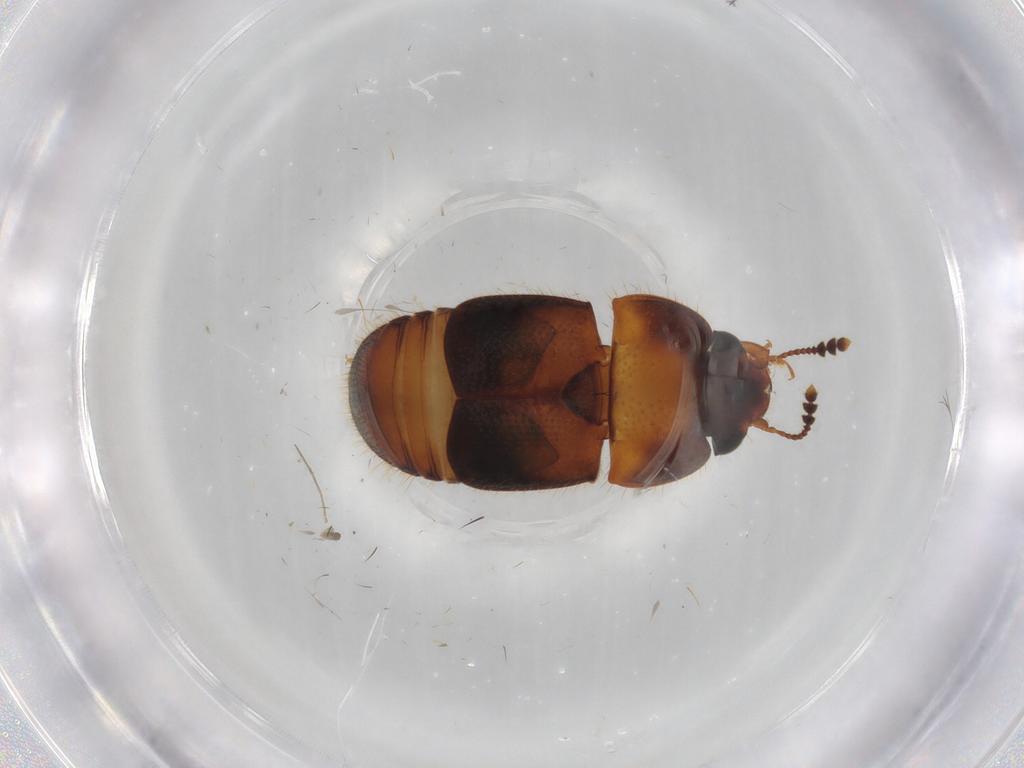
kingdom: Animalia
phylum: Arthropoda
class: Insecta
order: Coleoptera
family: Nitidulidae
